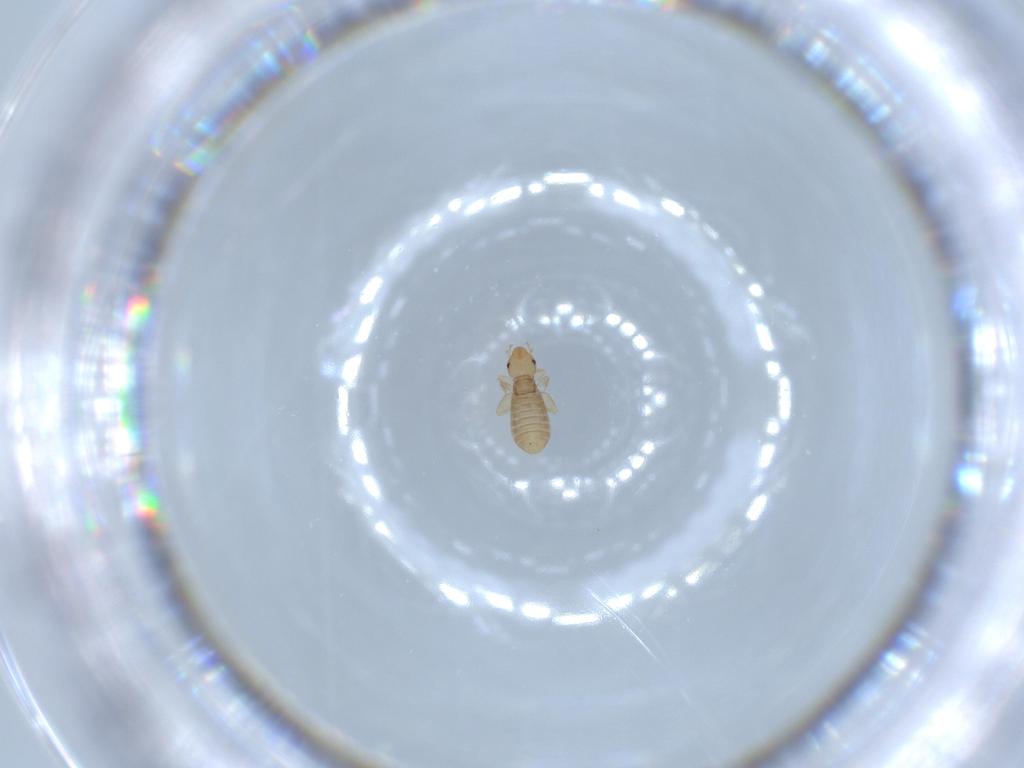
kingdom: Animalia
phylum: Arthropoda
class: Insecta
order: Psocodea
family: Liposcelididae
